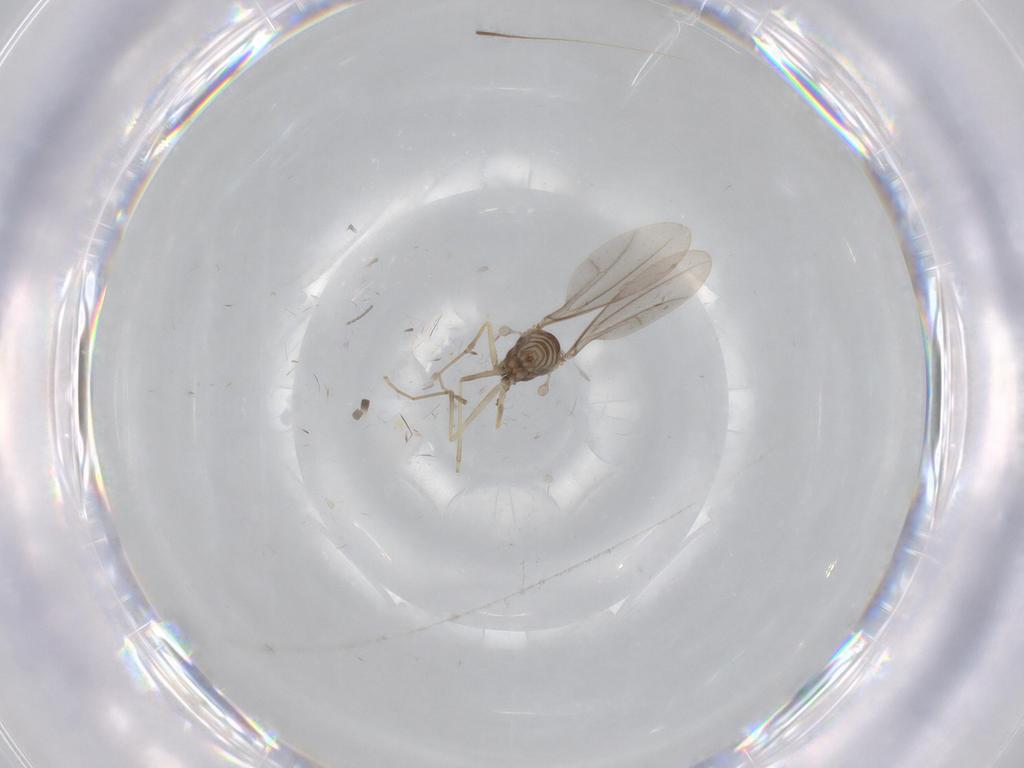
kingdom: Animalia
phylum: Arthropoda
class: Insecta
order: Diptera
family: Cecidomyiidae
